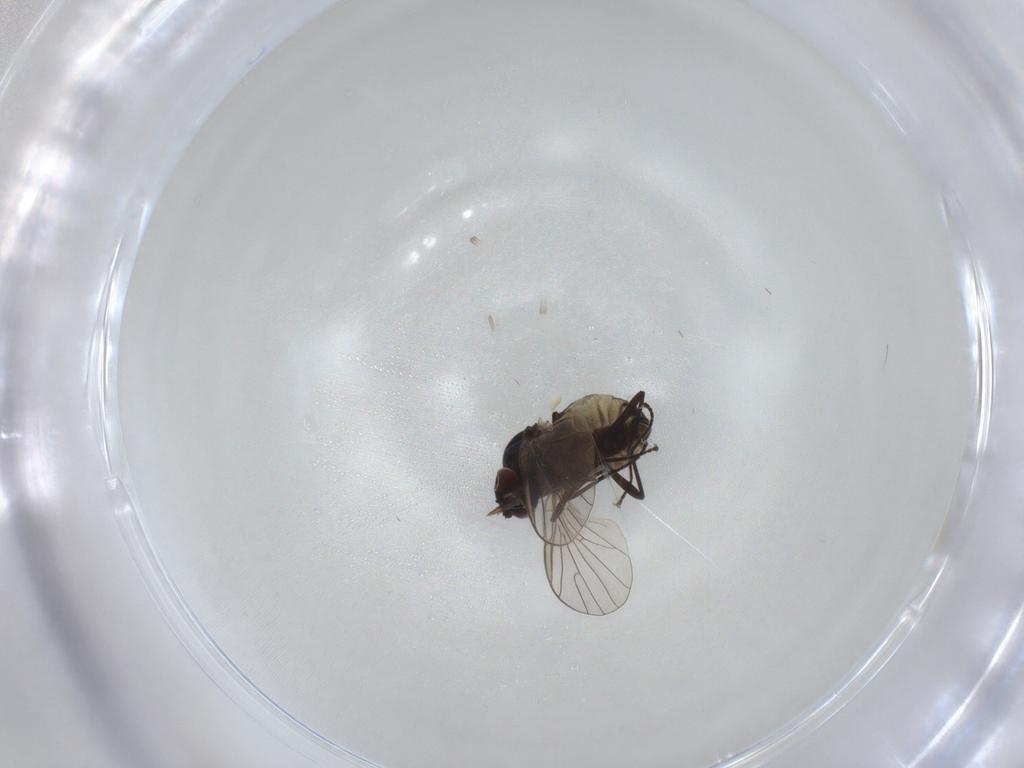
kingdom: Animalia
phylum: Arthropoda
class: Insecta
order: Diptera
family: Bombyliidae
